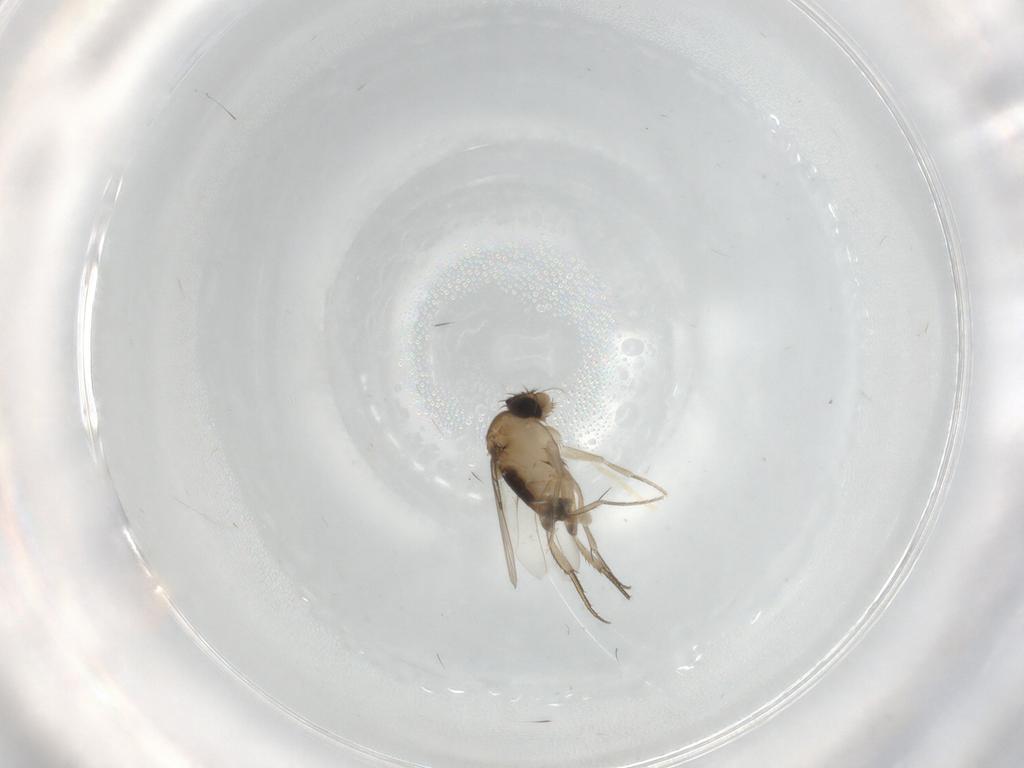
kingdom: Animalia
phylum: Arthropoda
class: Insecta
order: Diptera
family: Phoridae
